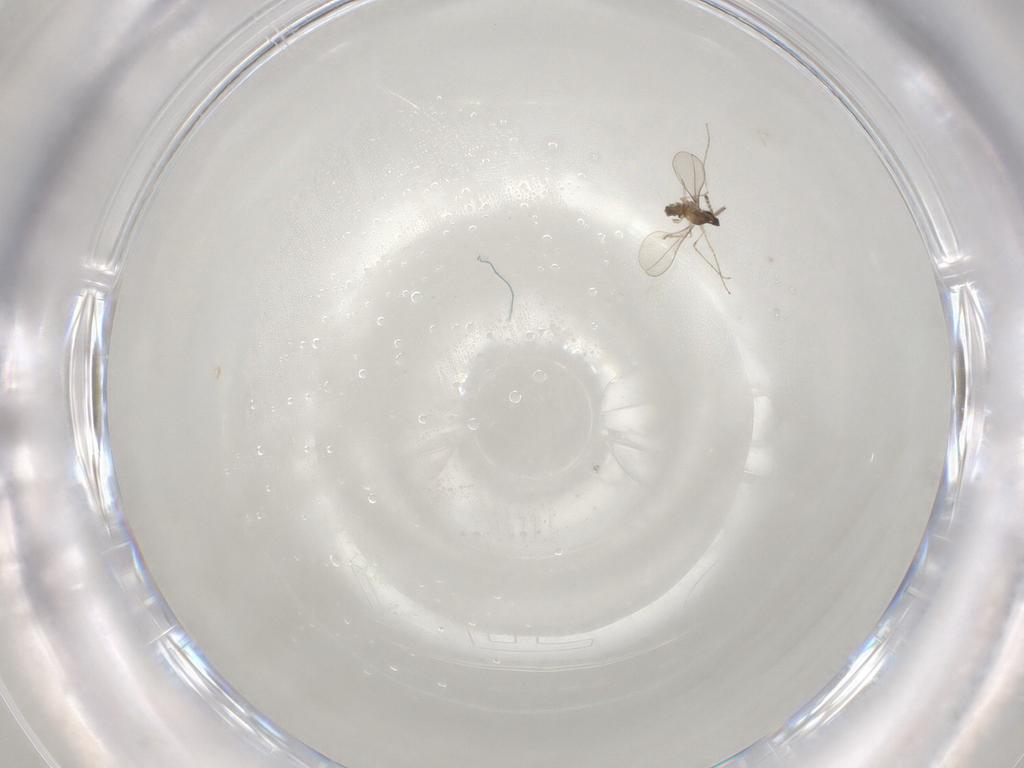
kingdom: Animalia
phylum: Arthropoda
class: Insecta
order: Diptera
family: Cecidomyiidae
